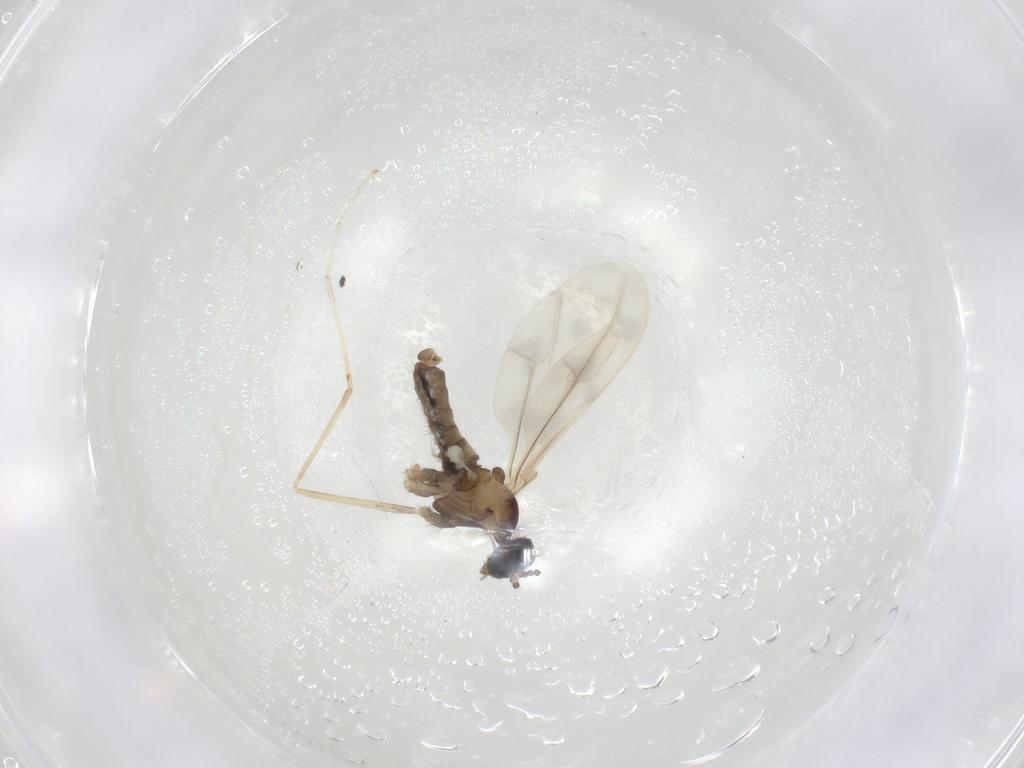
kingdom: Animalia
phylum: Arthropoda
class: Insecta
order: Diptera
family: Cecidomyiidae
